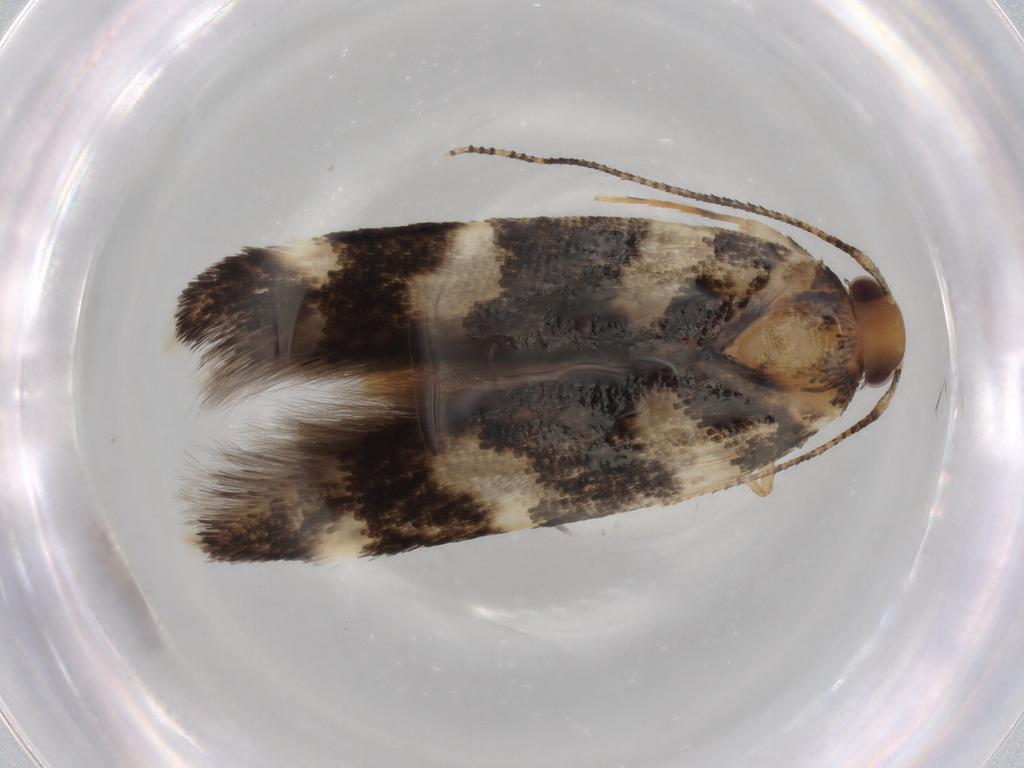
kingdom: Animalia
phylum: Arthropoda
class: Insecta
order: Lepidoptera
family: Cosmopterigidae
